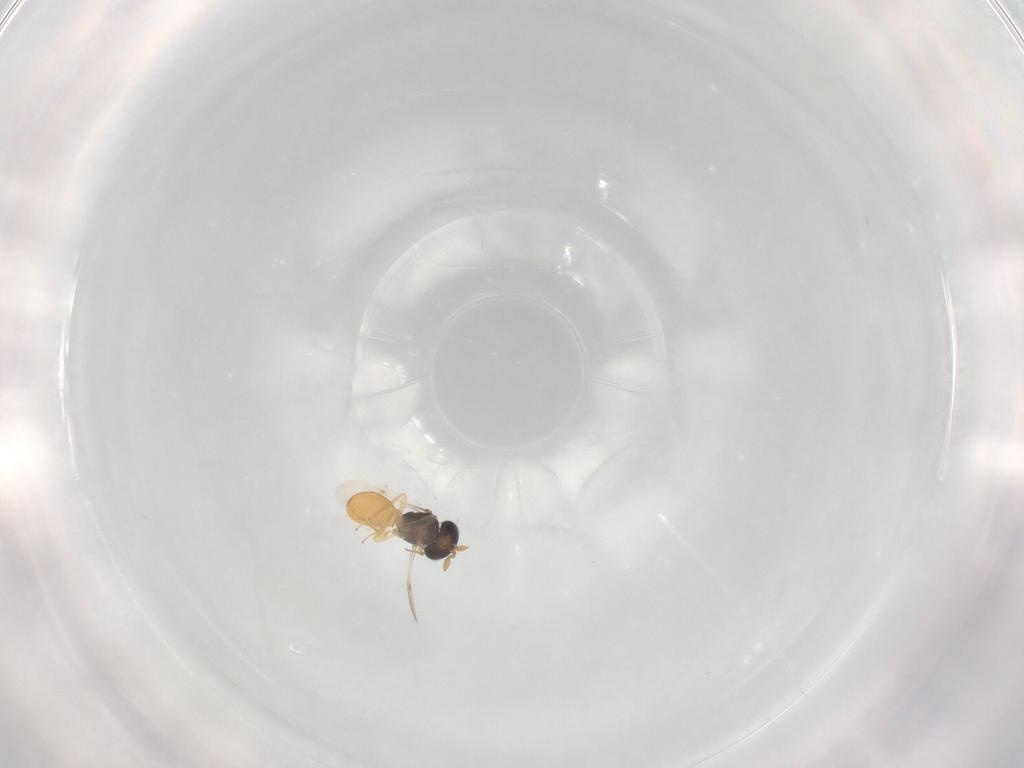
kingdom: Animalia
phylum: Arthropoda
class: Insecta
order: Hymenoptera
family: Scelionidae
